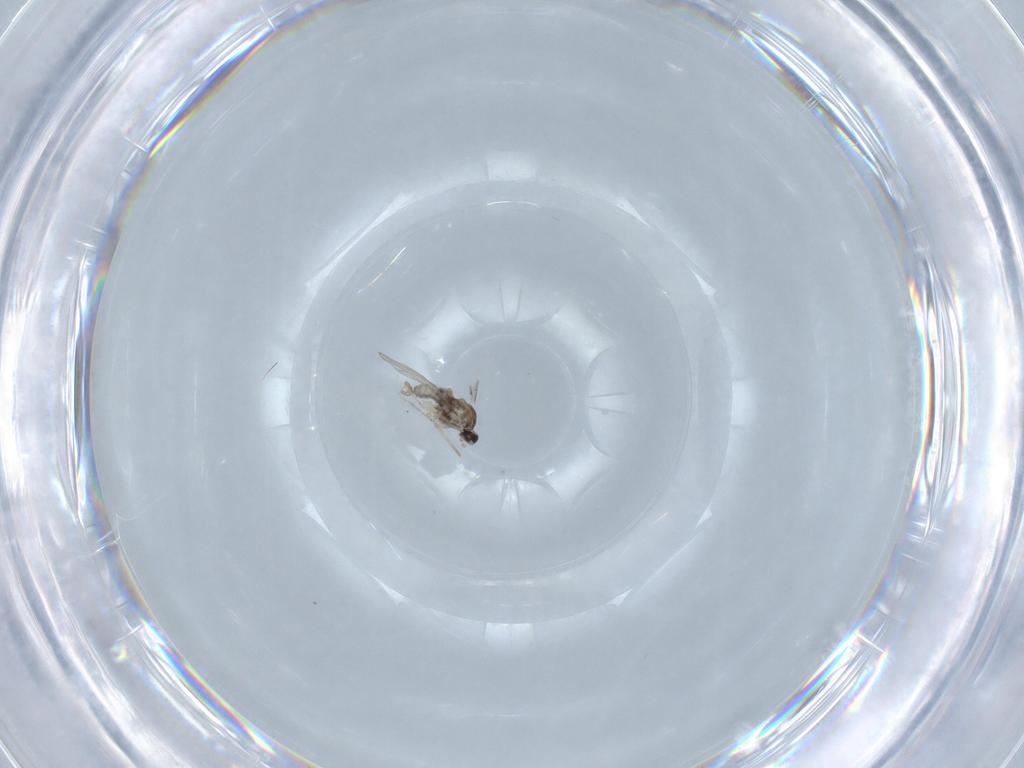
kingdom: Animalia
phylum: Arthropoda
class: Insecta
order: Diptera
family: Cecidomyiidae
